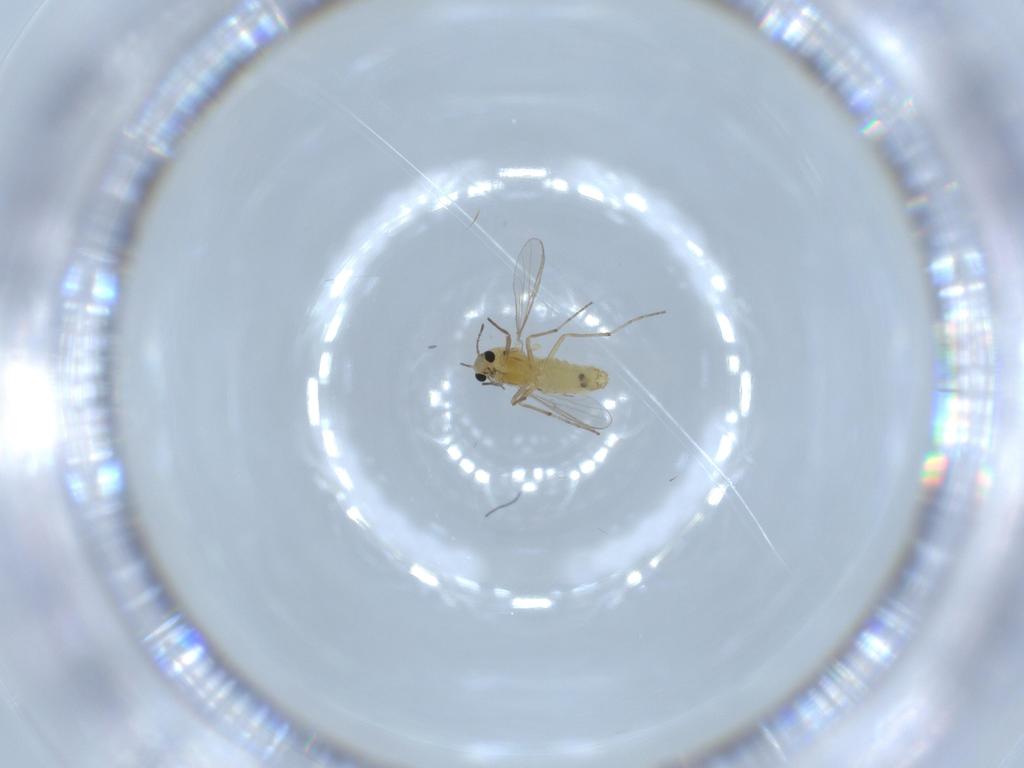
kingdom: Animalia
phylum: Arthropoda
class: Insecta
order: Diptera
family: Chironomidae
